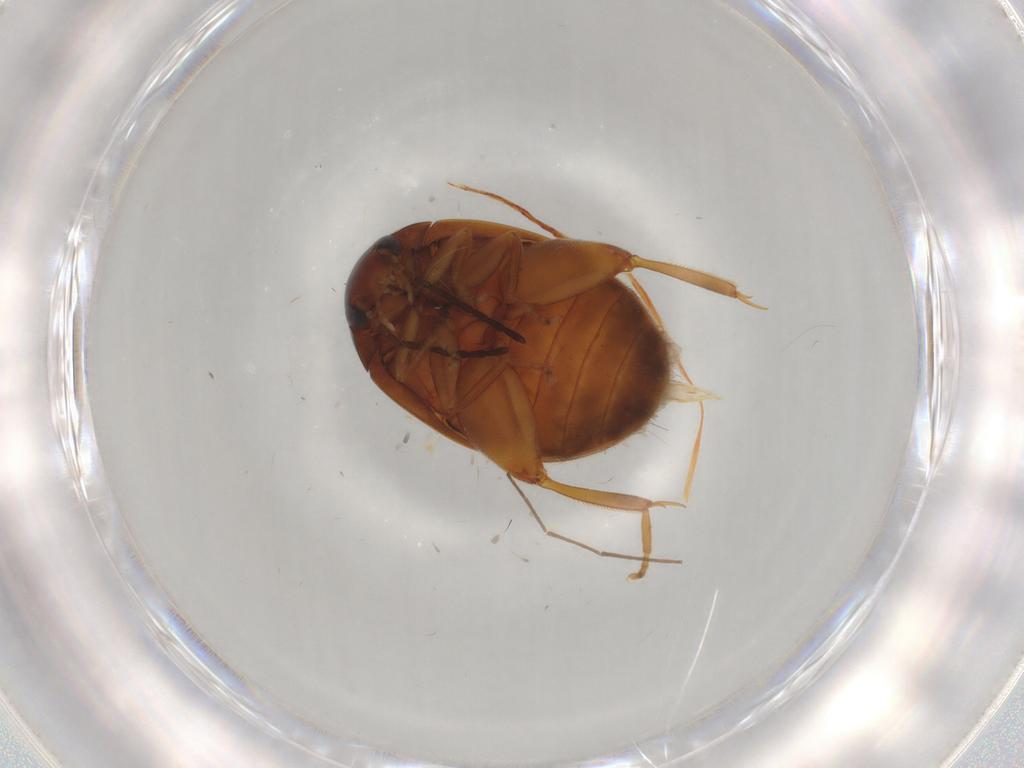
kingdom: Animalia
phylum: Arthropoda
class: Insecta
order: Coleoptera
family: Scirtidae
